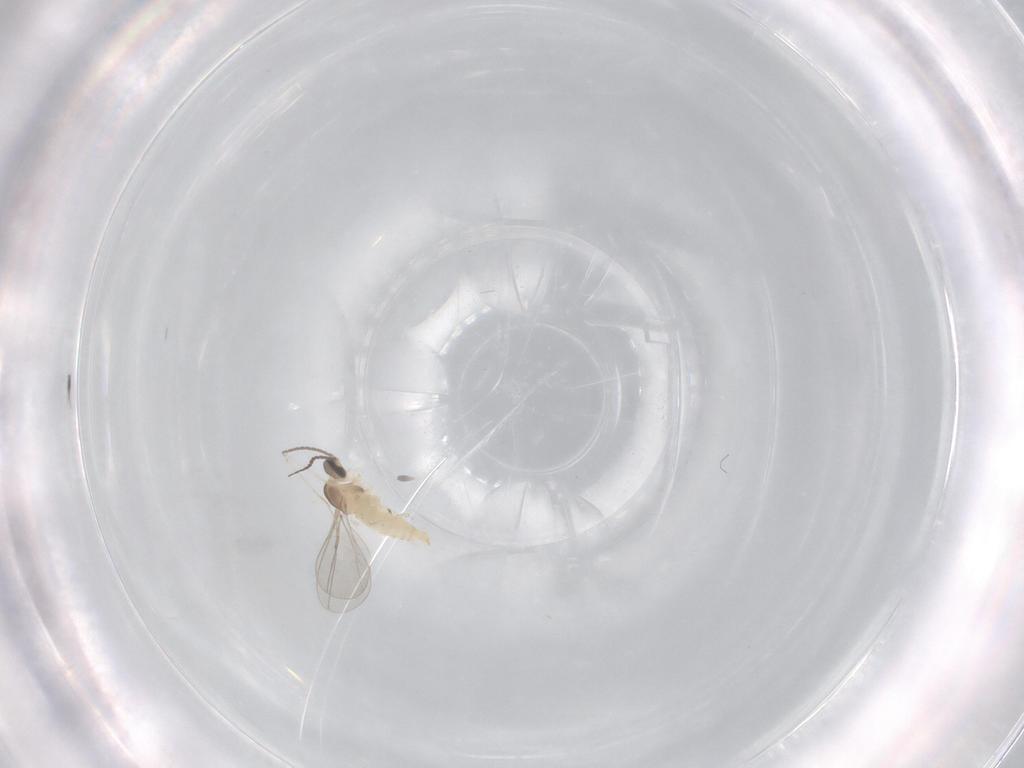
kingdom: Animalia
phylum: Arthropoda
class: Insecta
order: Diptera
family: Cecidomyiidae
